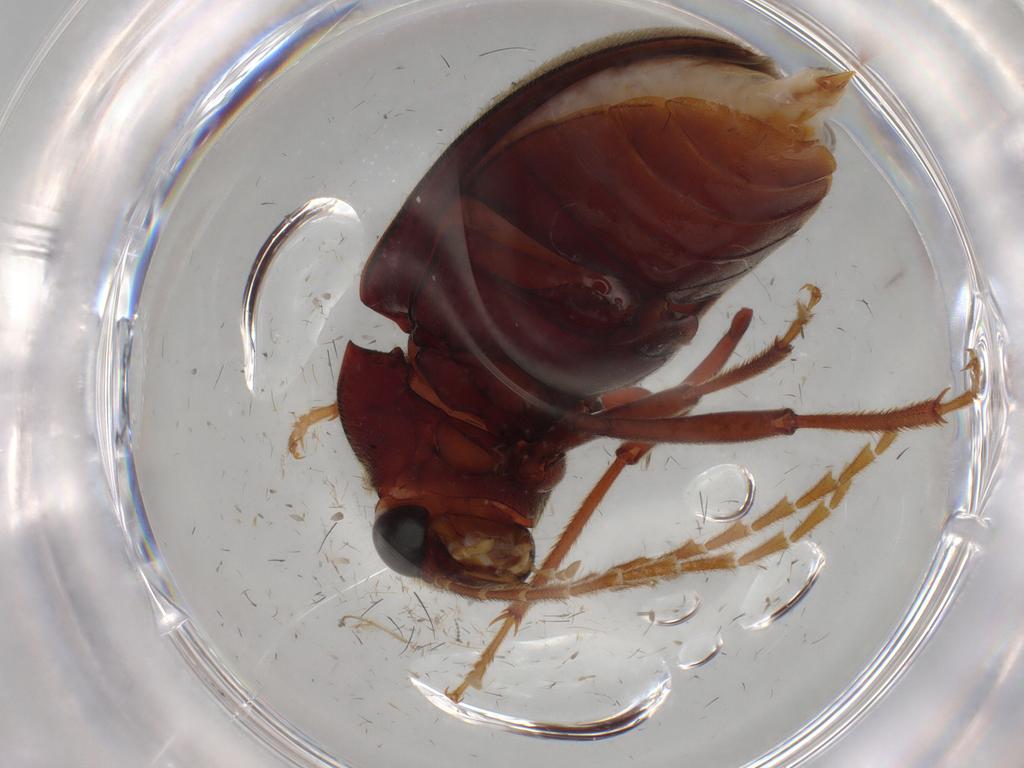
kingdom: Animalia
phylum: Arthropoda
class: Insecta
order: Coleoptera
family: Ptilodactylidae
